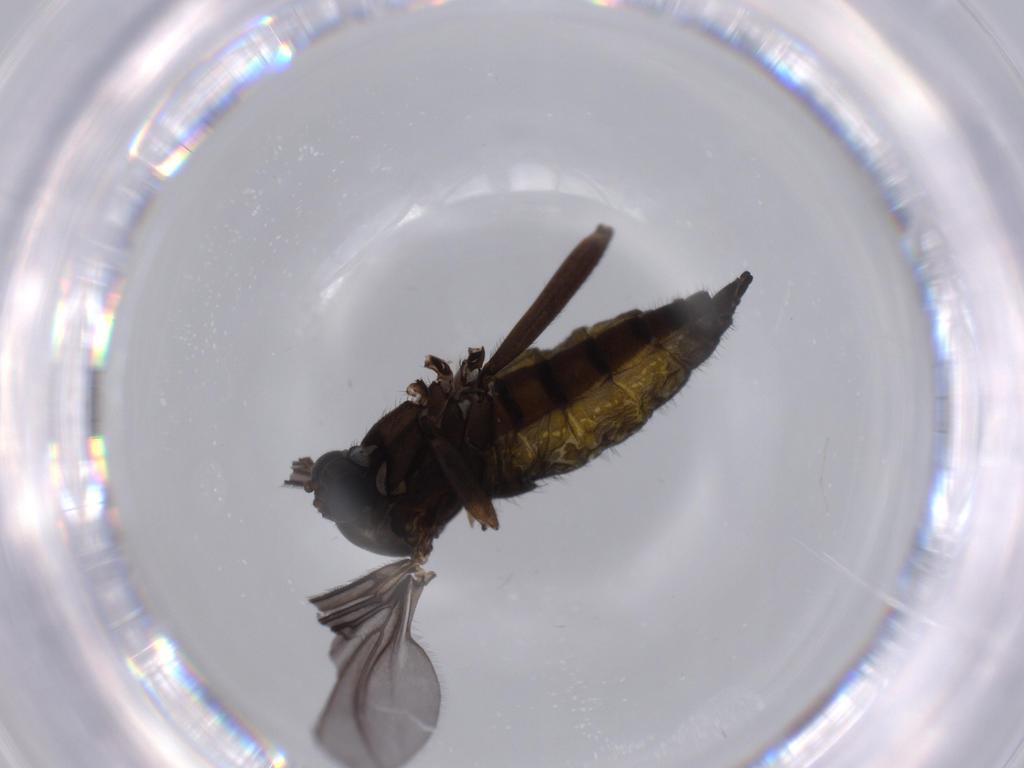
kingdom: Animalia
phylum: Arthropoda
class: Insecta
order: Diptera
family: Sciaridae
